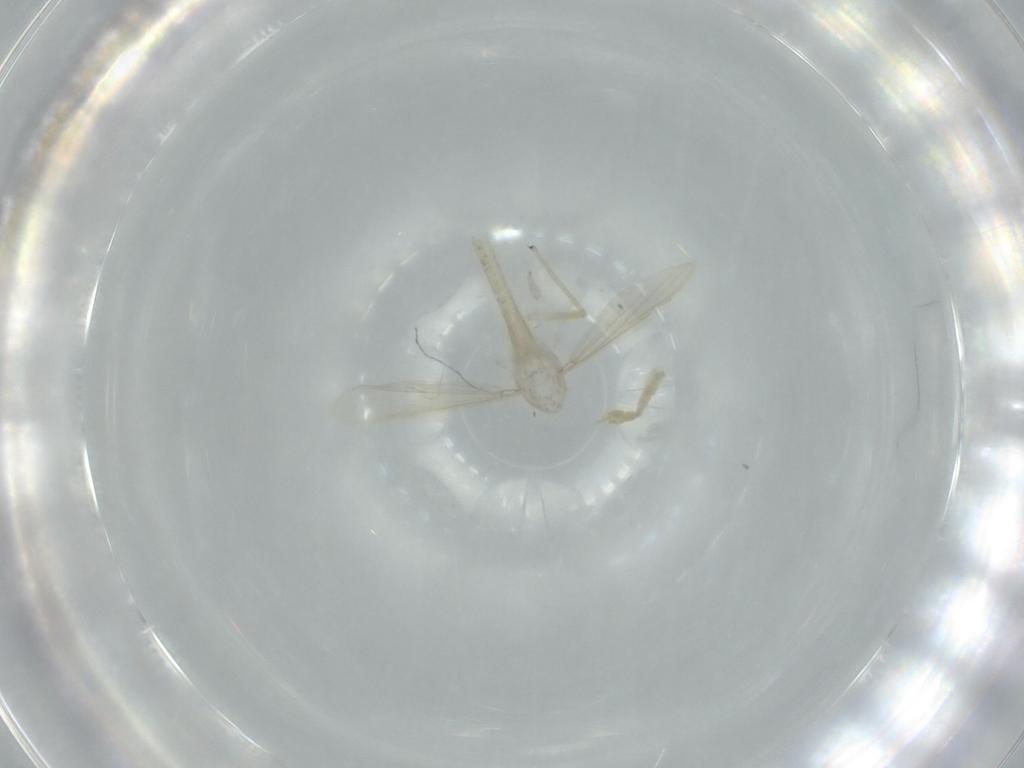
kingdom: Animalia
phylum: Arthropoda
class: Insecta
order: Diptera
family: Chironomidae
